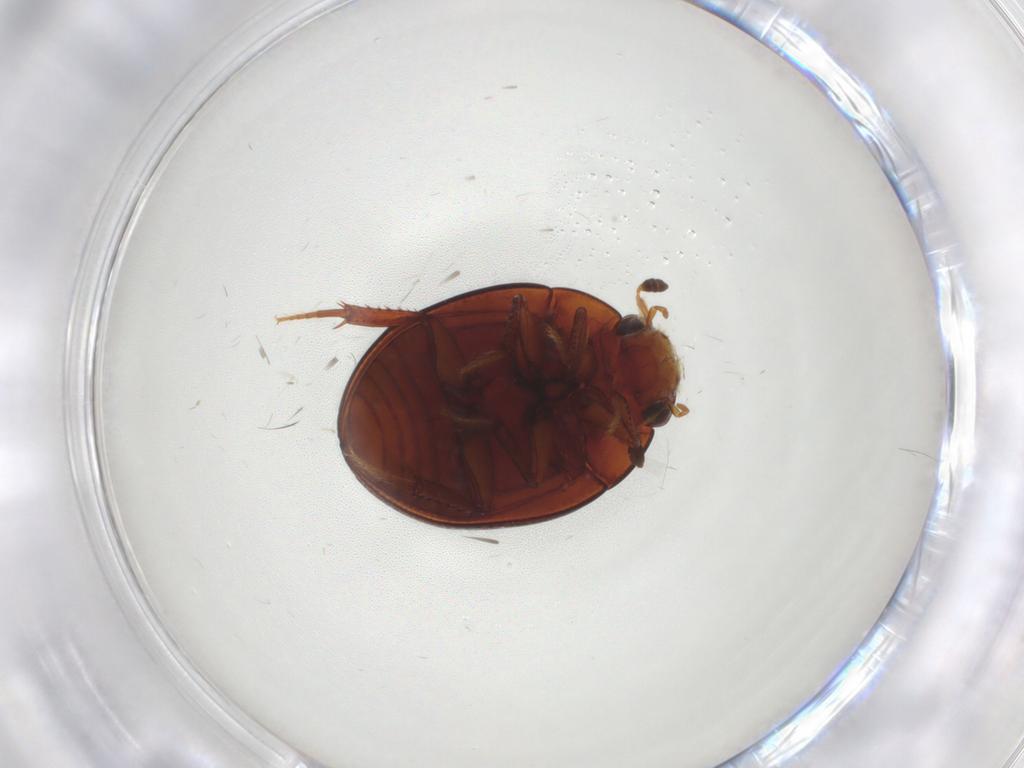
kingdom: Animalia
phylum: Arthropoda
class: Insecta
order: Coleoptera
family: Hydrophilidae
